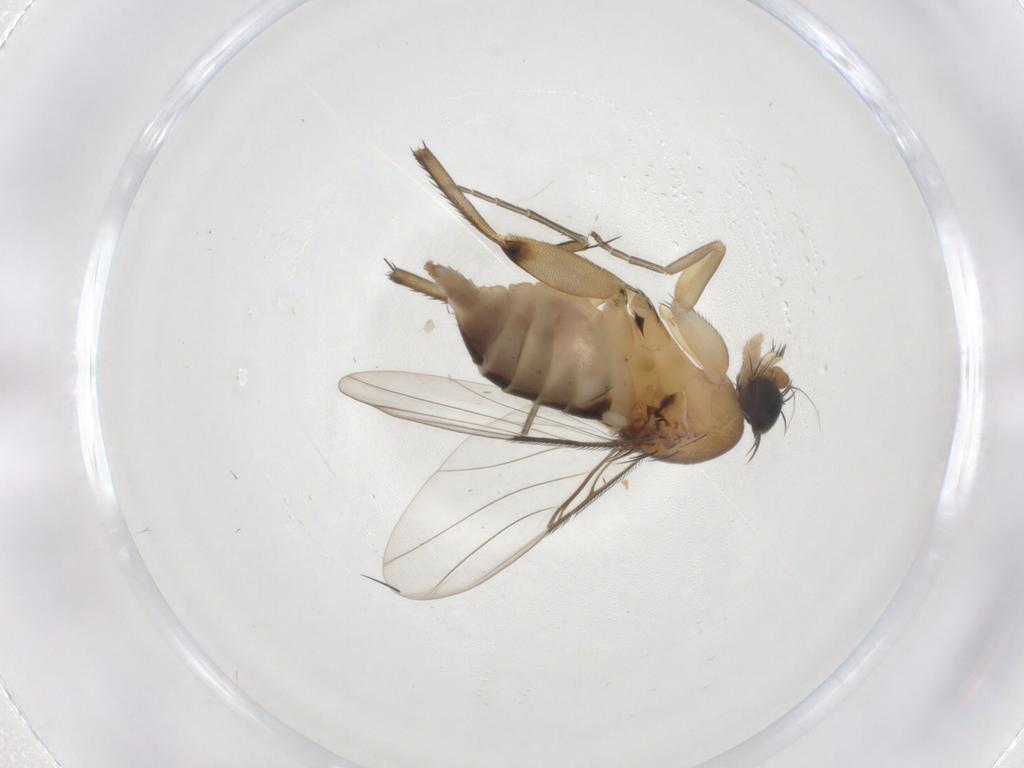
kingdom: Animalia
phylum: Arthropoda
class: Insecta
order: Diptera
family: Phoridae
